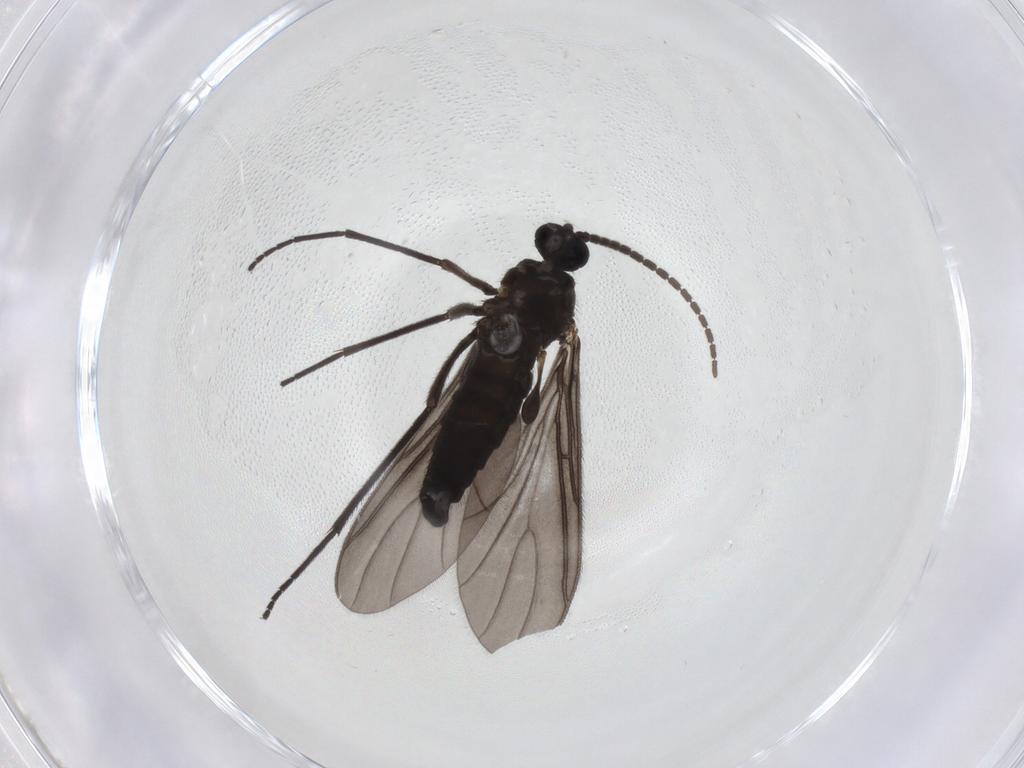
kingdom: Animalia
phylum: Arthropoda
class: Insecta
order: Diptera
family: Sciaridae
